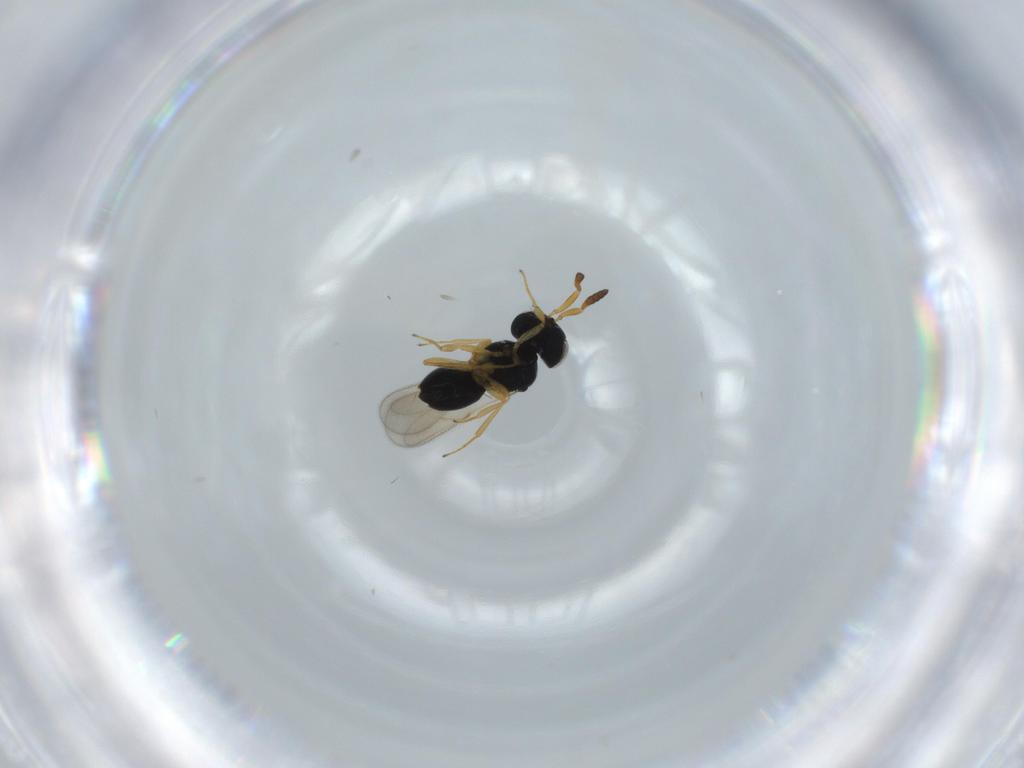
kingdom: Animalia
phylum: Arthropoda
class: Insecta
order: Hymenoptera
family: Scelionidae
